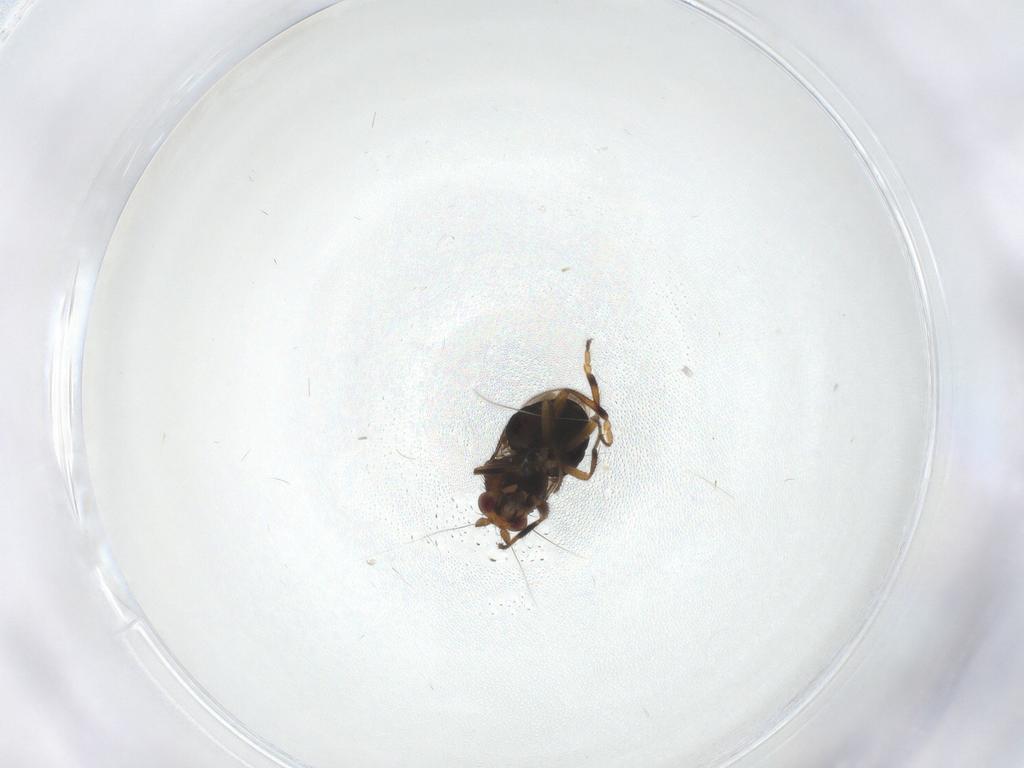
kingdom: Animalia
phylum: Arthropoda
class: Insecta
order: Diptera
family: Sphaeroceridae
